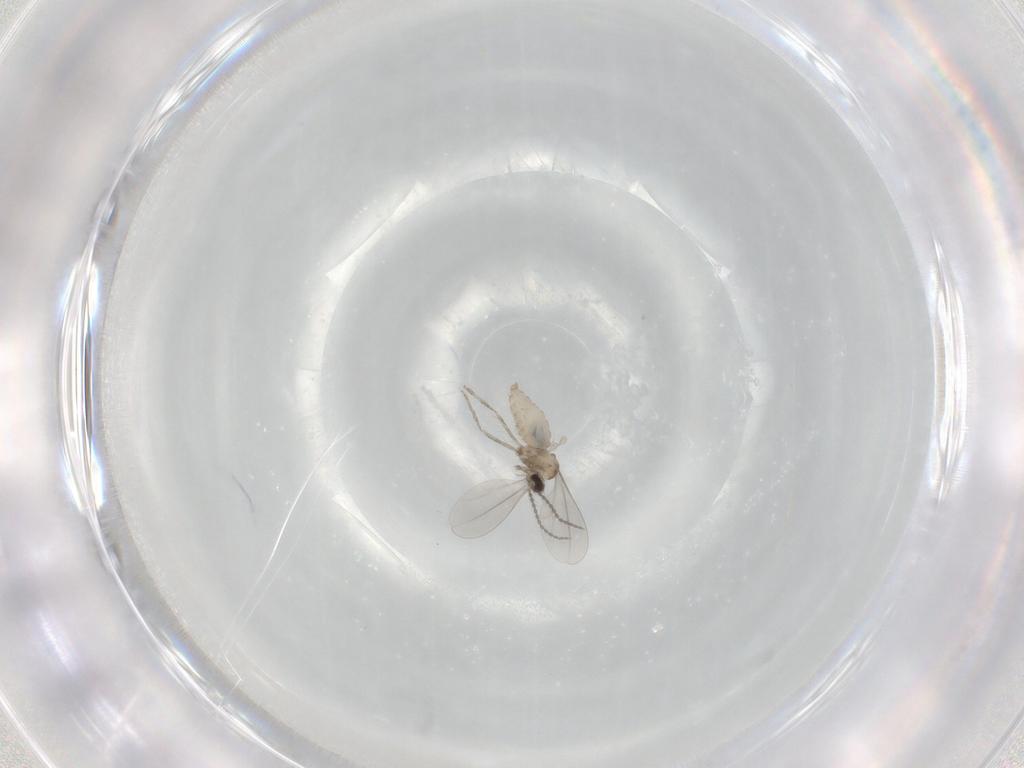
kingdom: Animalia
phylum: Arthropoda
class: Insecta
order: Diptera
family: Cecidomyiidae
